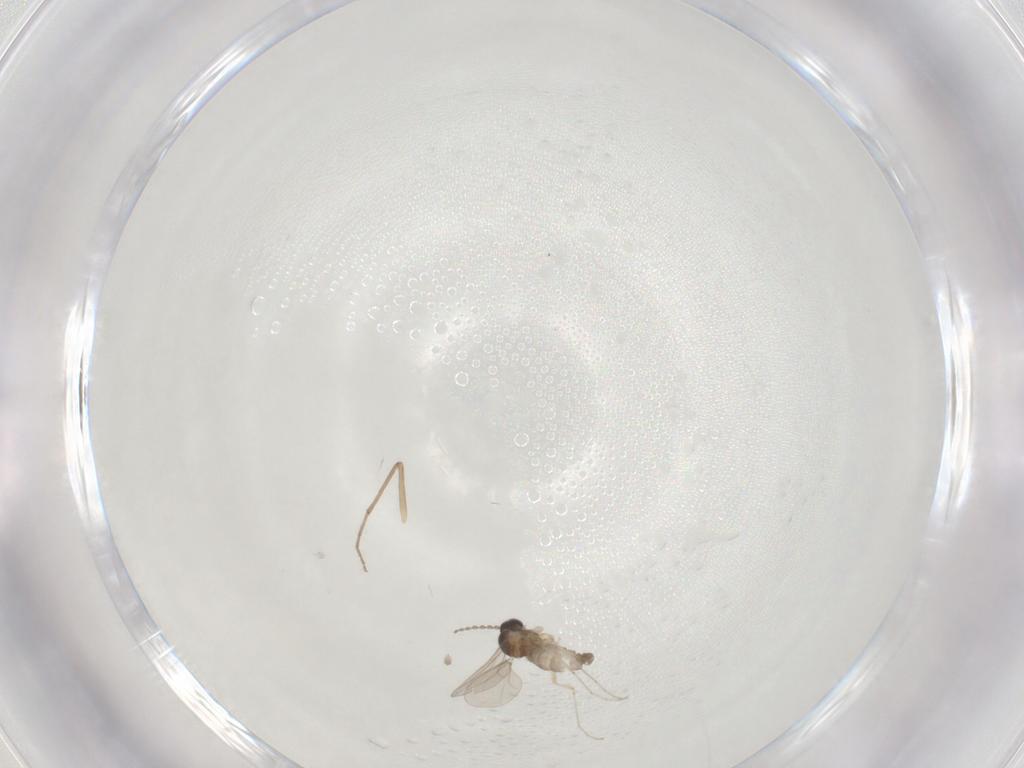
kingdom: Animalia
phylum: Arthropoda
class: Insecta
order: Diptera
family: Cecidomyiidae
